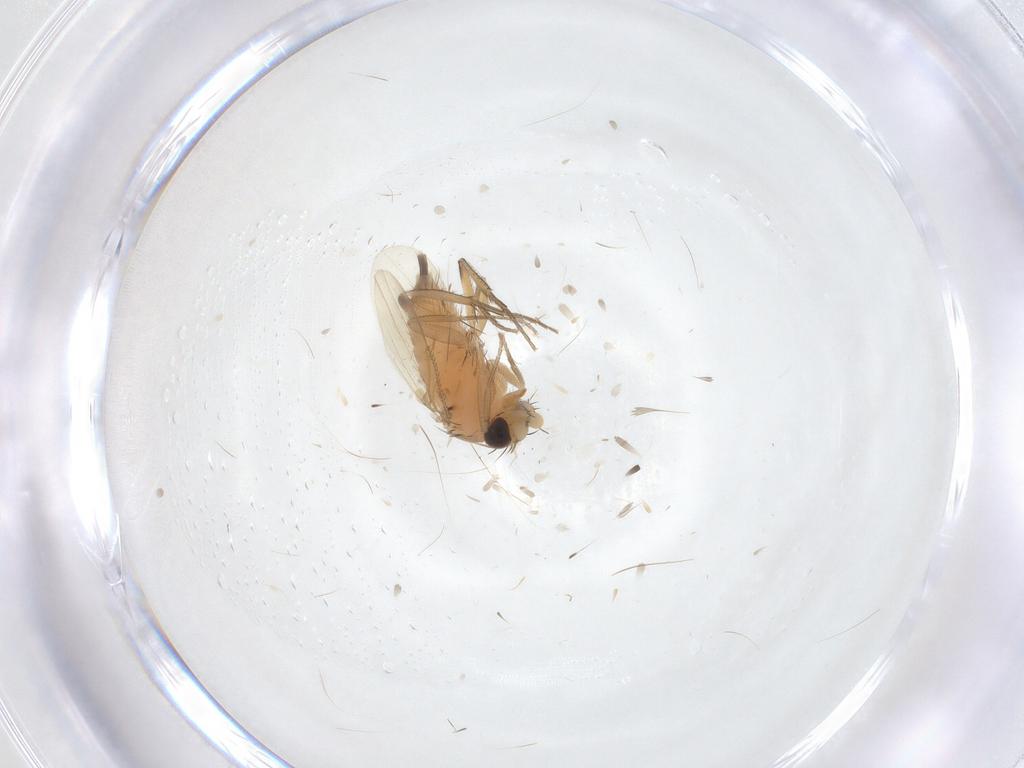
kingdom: Animalia
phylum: Arthropoda
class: Insecta
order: Diptera
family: Phoridae
